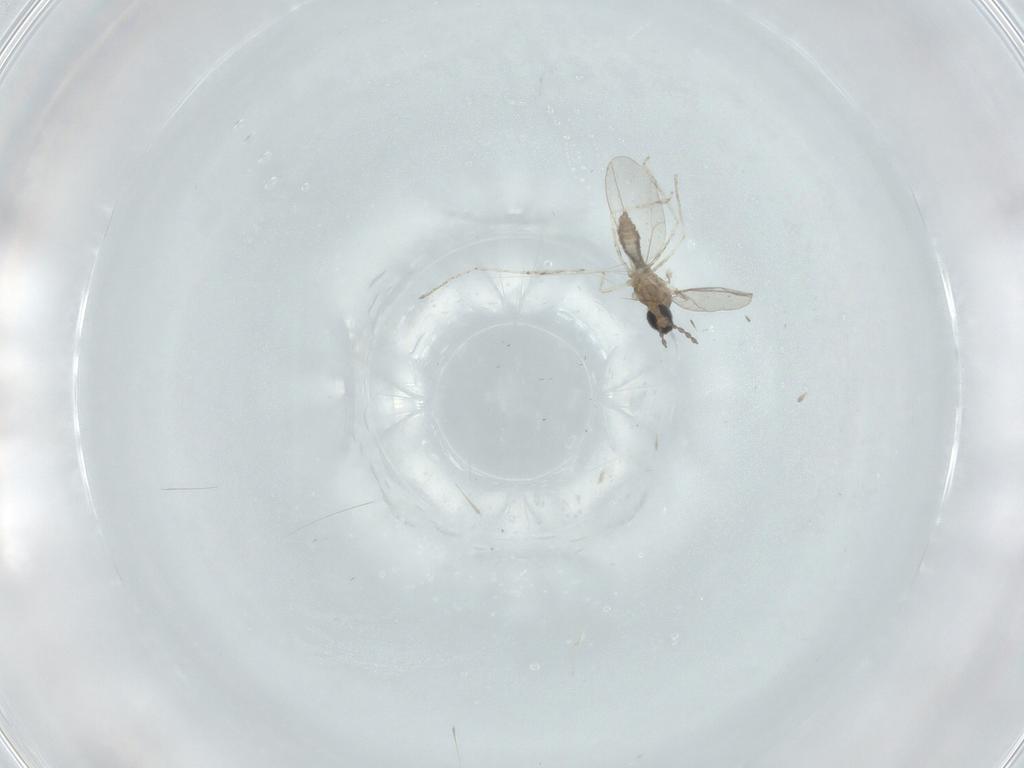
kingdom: Animalia
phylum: Arthropoda
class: Insecta
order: Diptera
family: Cecidomyiidae
